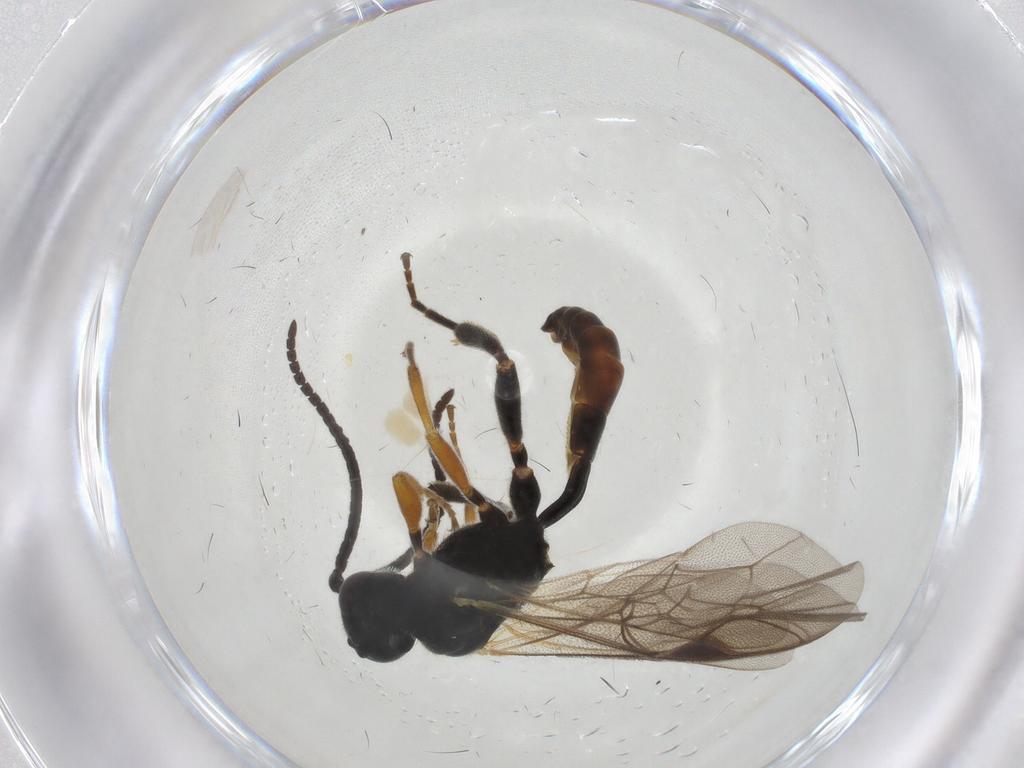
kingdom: Animalia
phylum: Arthropoda
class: Insecta
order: Hymenoptera
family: Ichneumonidae
